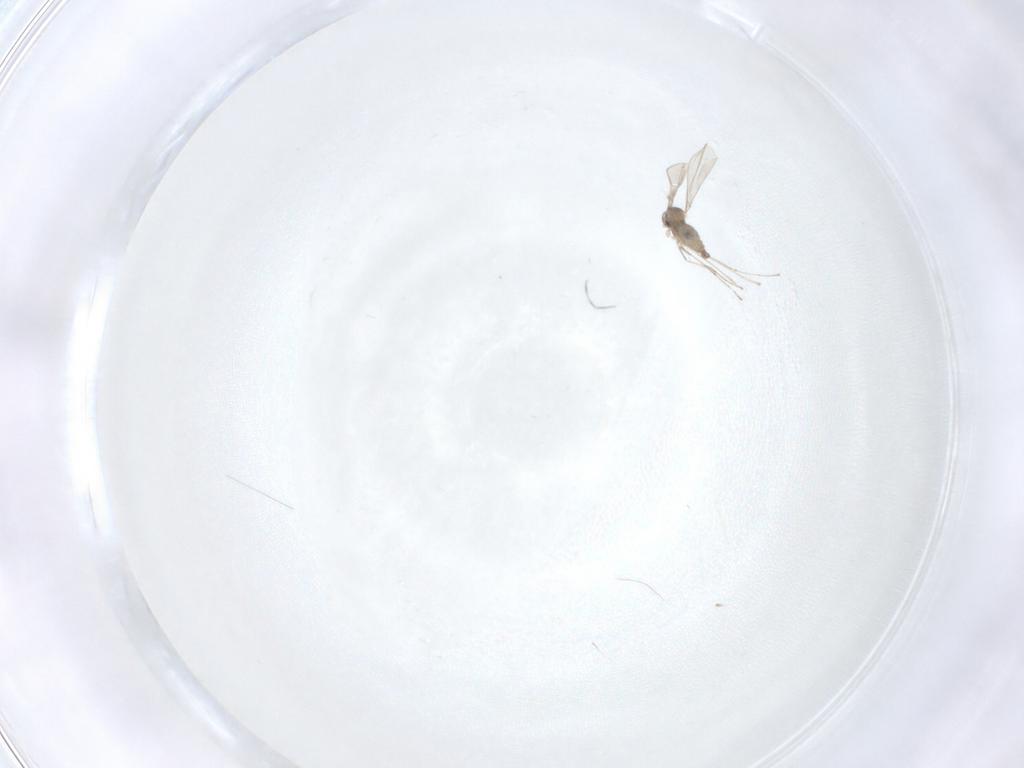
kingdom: Animalia
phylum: Arthropoda
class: Insecta
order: Diptera
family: Cecidomyiidae
